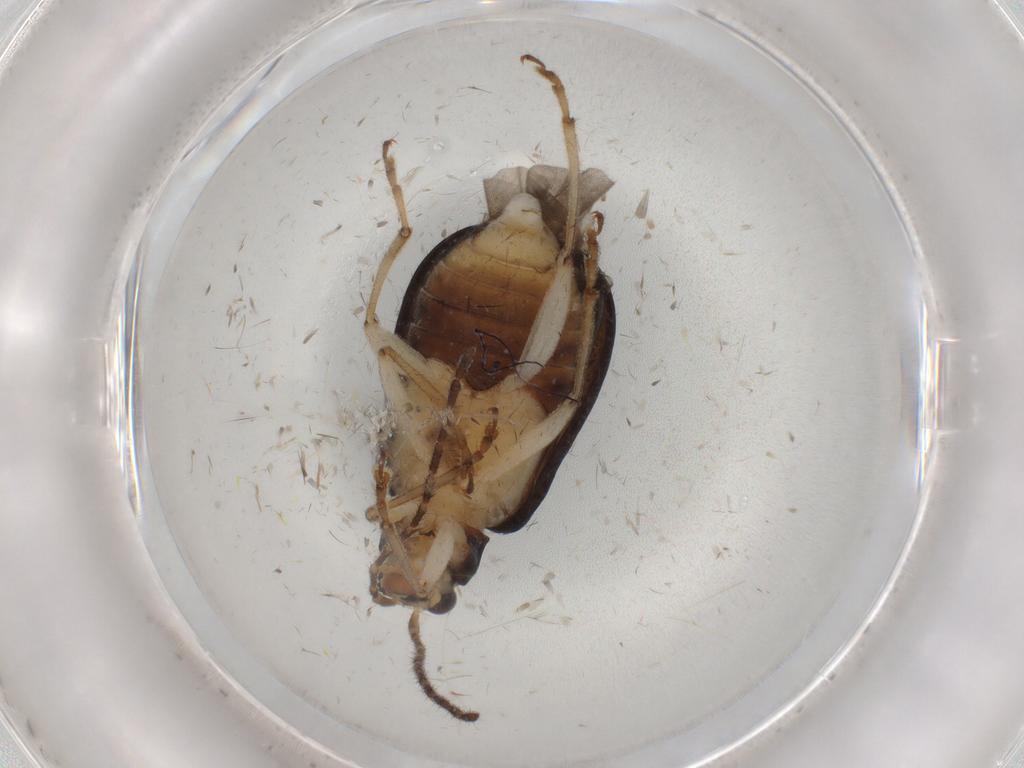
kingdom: Animalia
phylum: Arthropoda
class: Insecta
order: Coleoptera
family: Chrysomelidae
